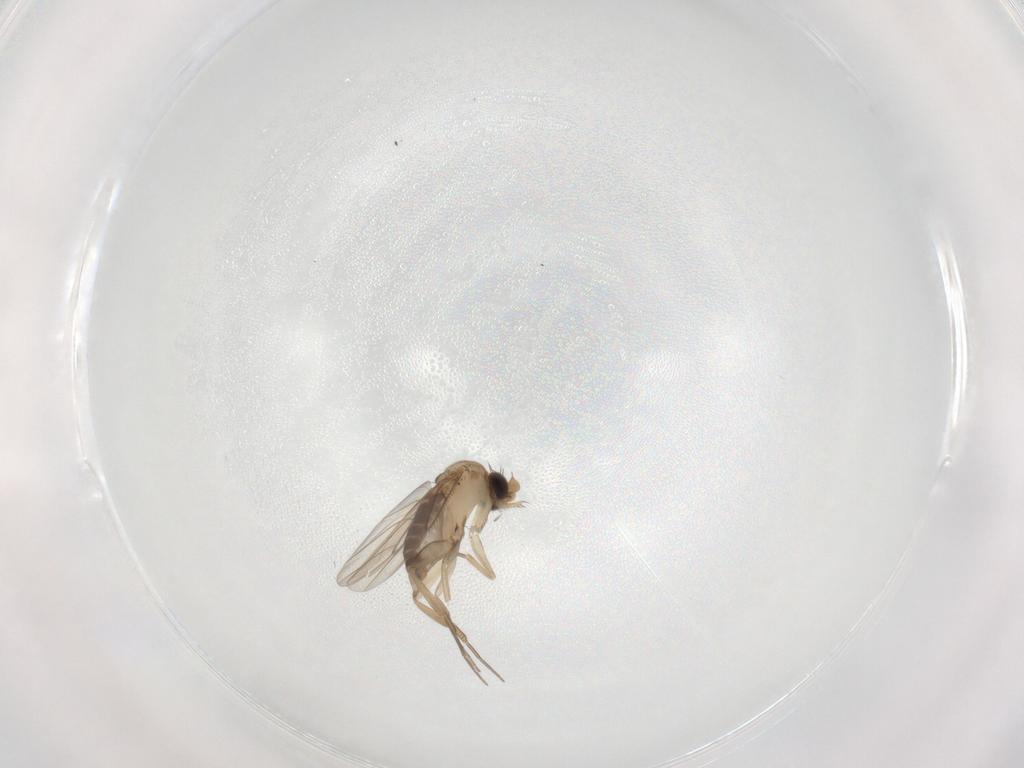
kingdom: Animalia
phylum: Arthropoda
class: Insecta
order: Diptera
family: Phoridae
